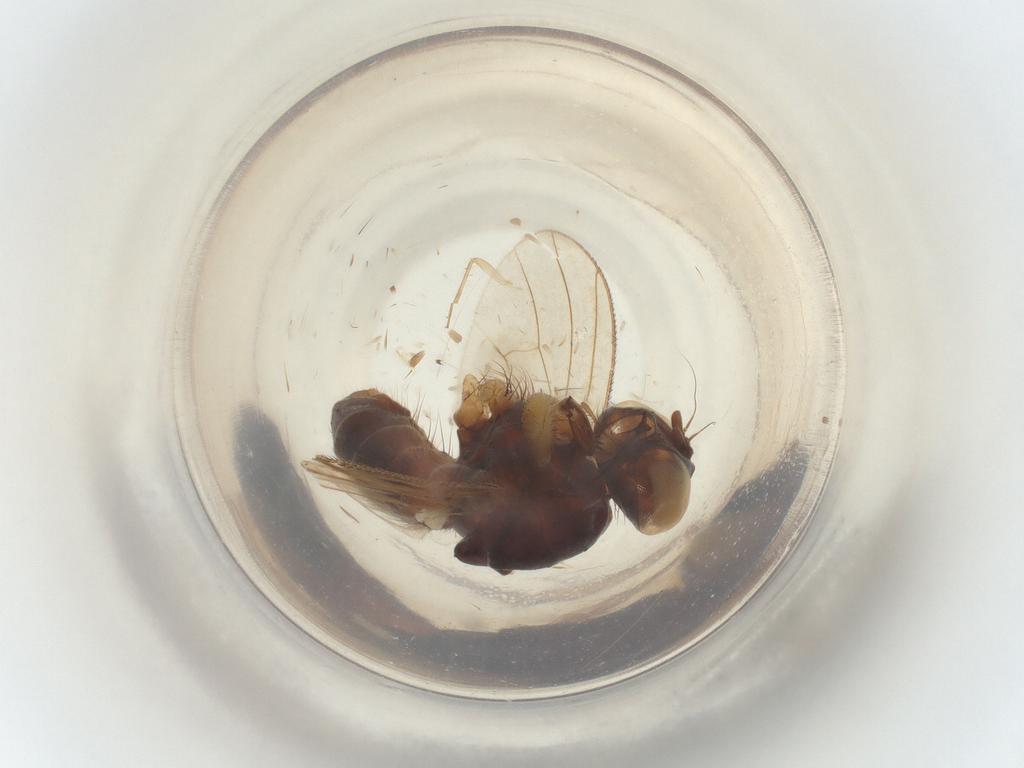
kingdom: Animalia
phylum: Arthropoda
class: Insecta
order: Diptera
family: Muscidae
